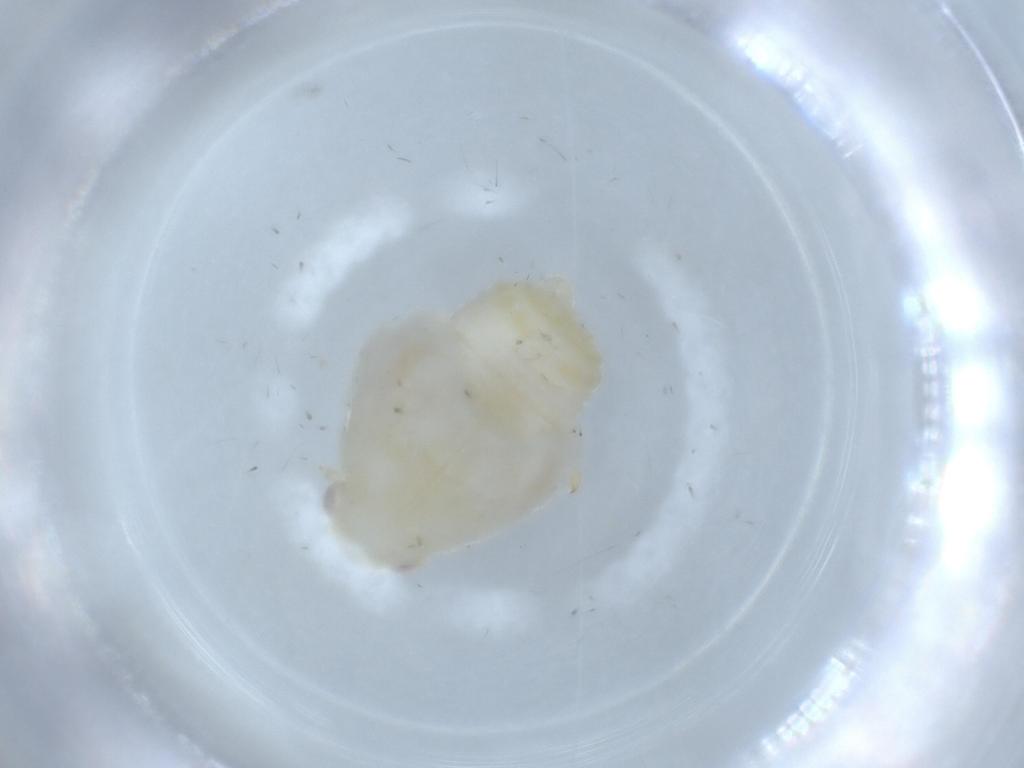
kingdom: Animalia
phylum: Arthropoda
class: Insecta
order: Hemiptera
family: Flatidae
